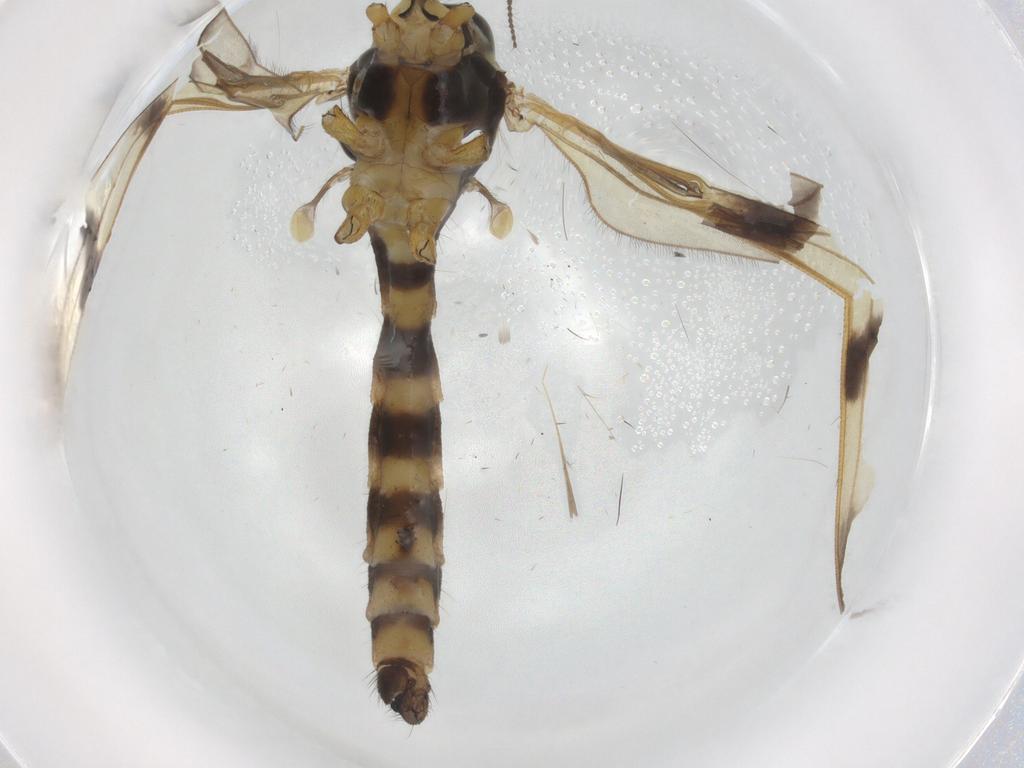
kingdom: Animalia
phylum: Arthropoda
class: Insecta
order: Diptera
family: Limoniidae
